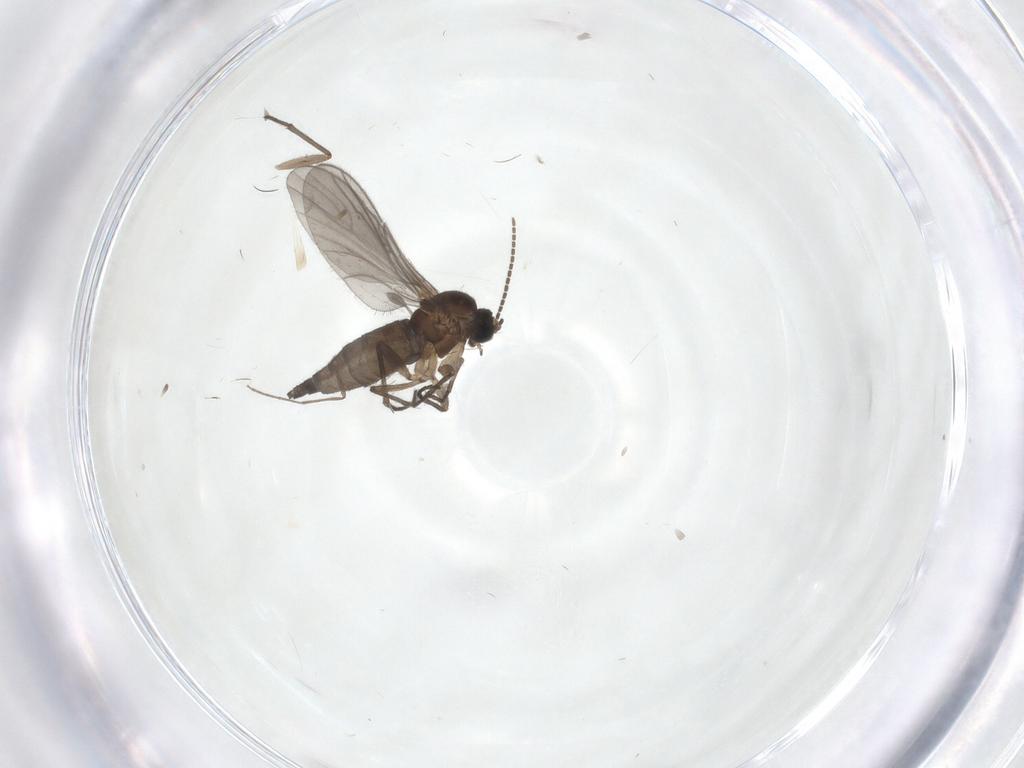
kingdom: Animalia
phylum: Arthropoda
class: Insecta
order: Diptera
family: Sciaridae
